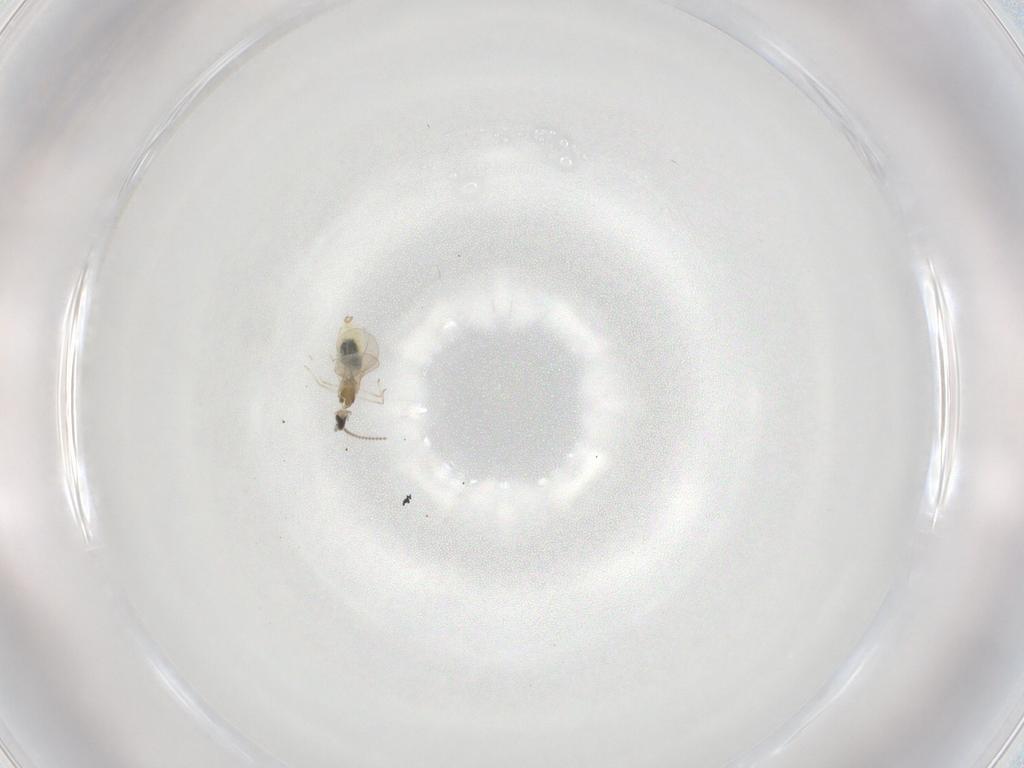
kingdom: Animalia
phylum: Arthropoda
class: Insecta
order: Diptera
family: Cecidomyiidae
